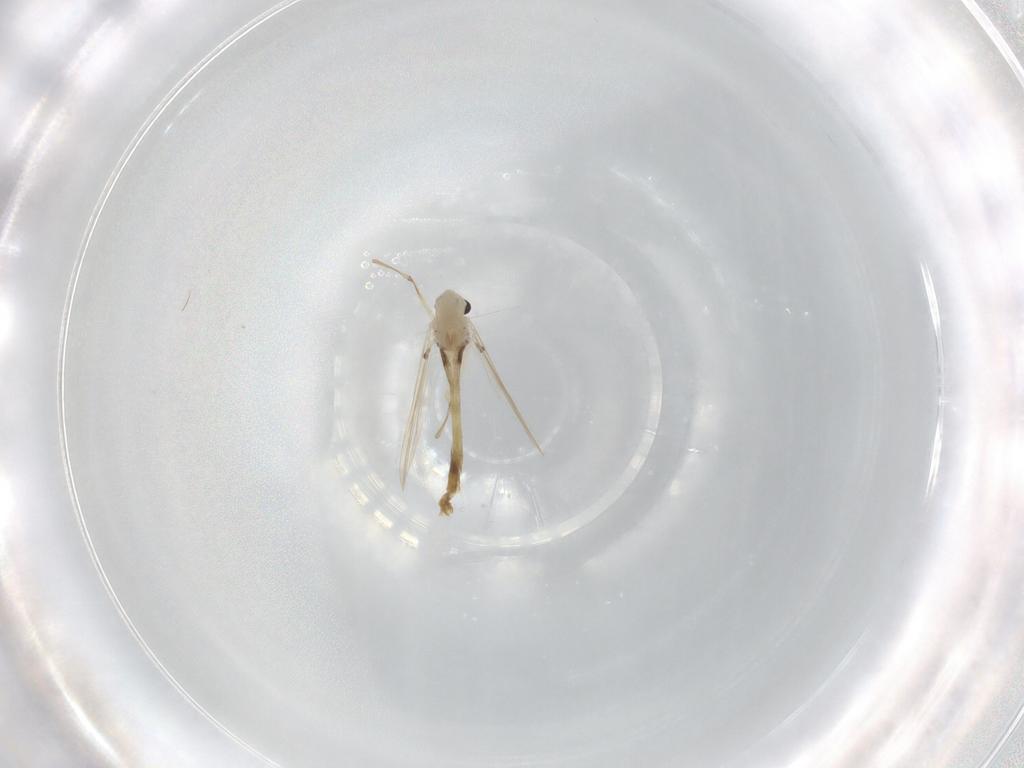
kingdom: Animalia
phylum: Arthropoda
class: Insecta
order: Diptera
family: Chironomidae
